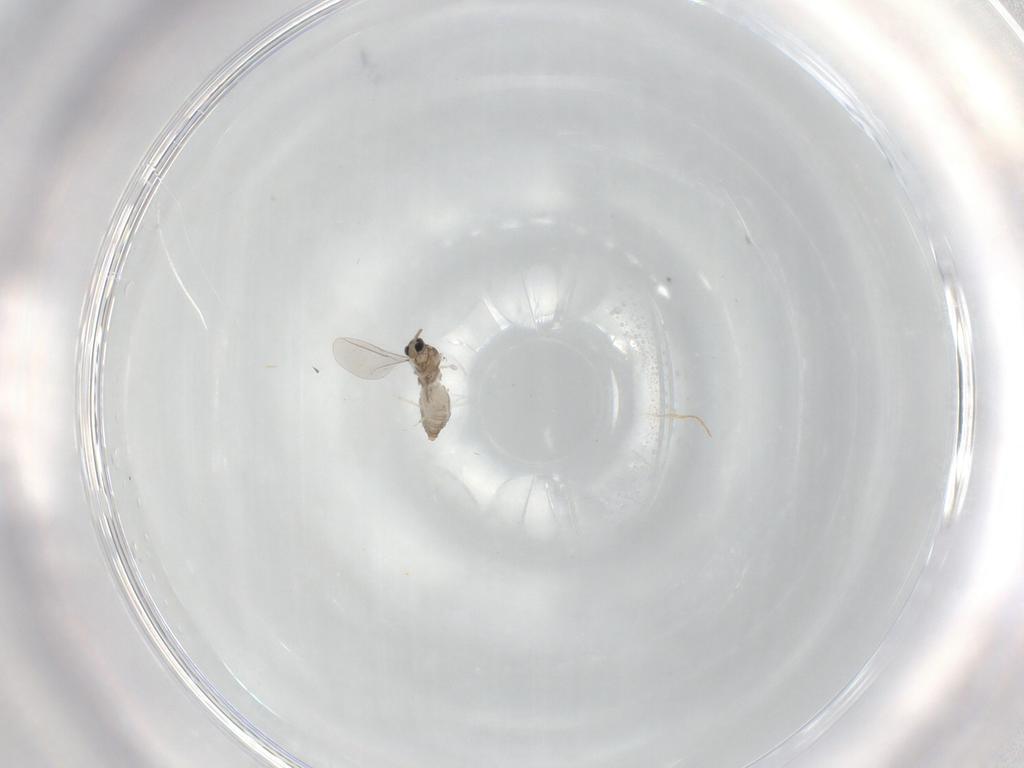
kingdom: Animalia
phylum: Arthropoda
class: Insecta
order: Diptera
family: Cecidomyiidae
